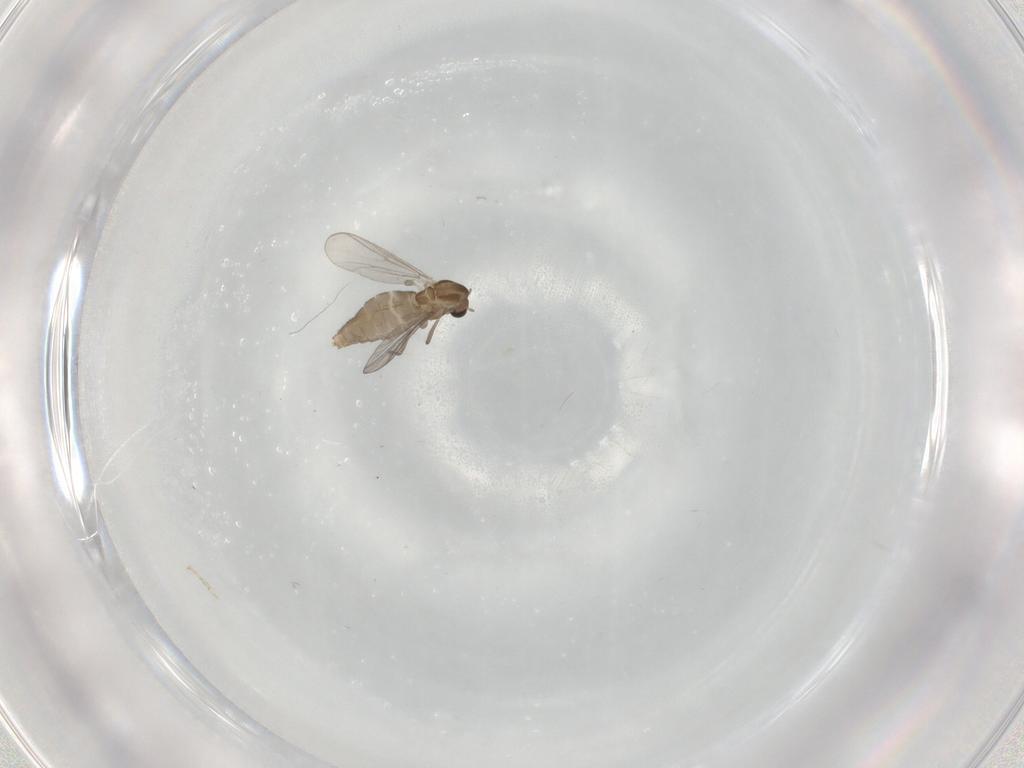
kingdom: Animalia
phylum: Arthropoda
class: Insecta
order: Diptera
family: Chironomidae
